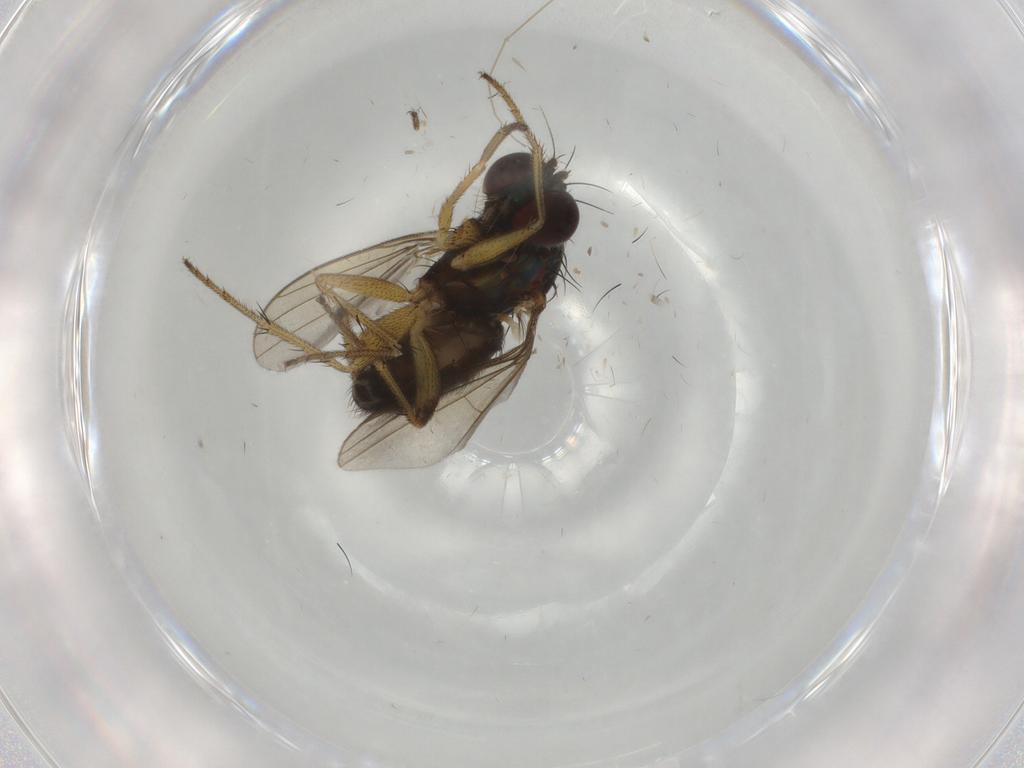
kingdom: Animalia
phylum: Arthropoda
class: Insecta
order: Diptera
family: Dolichopodidae
